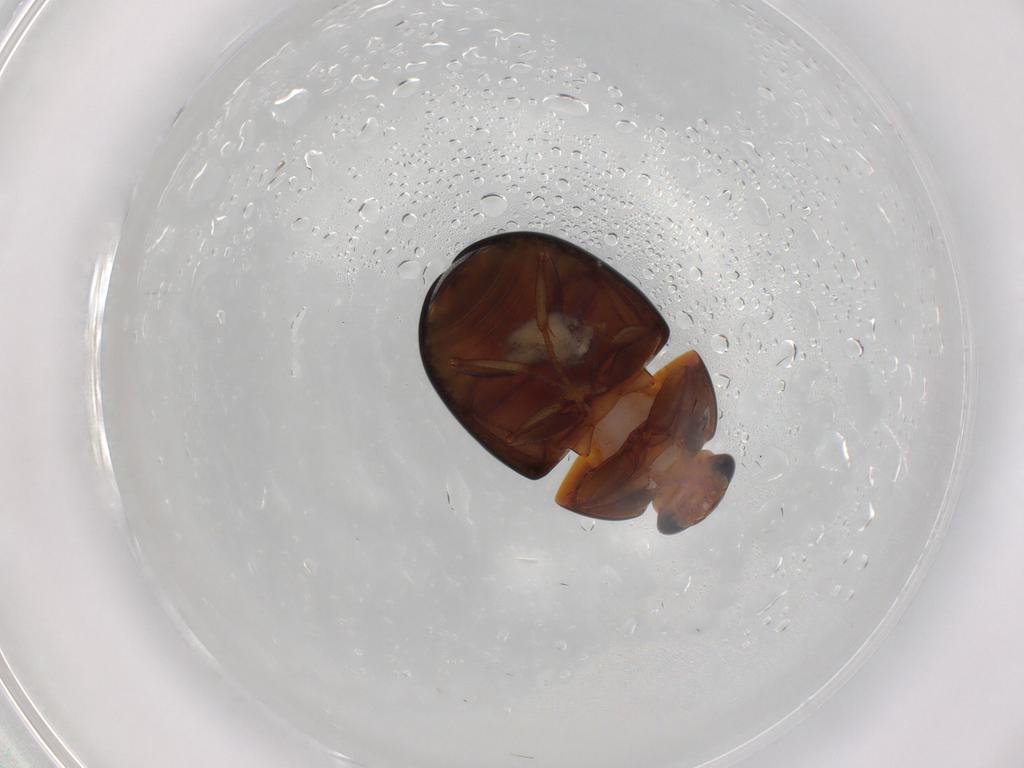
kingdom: Animalia
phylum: Arthropoda
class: Insecta
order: Coleoptera
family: Nitidulidae
